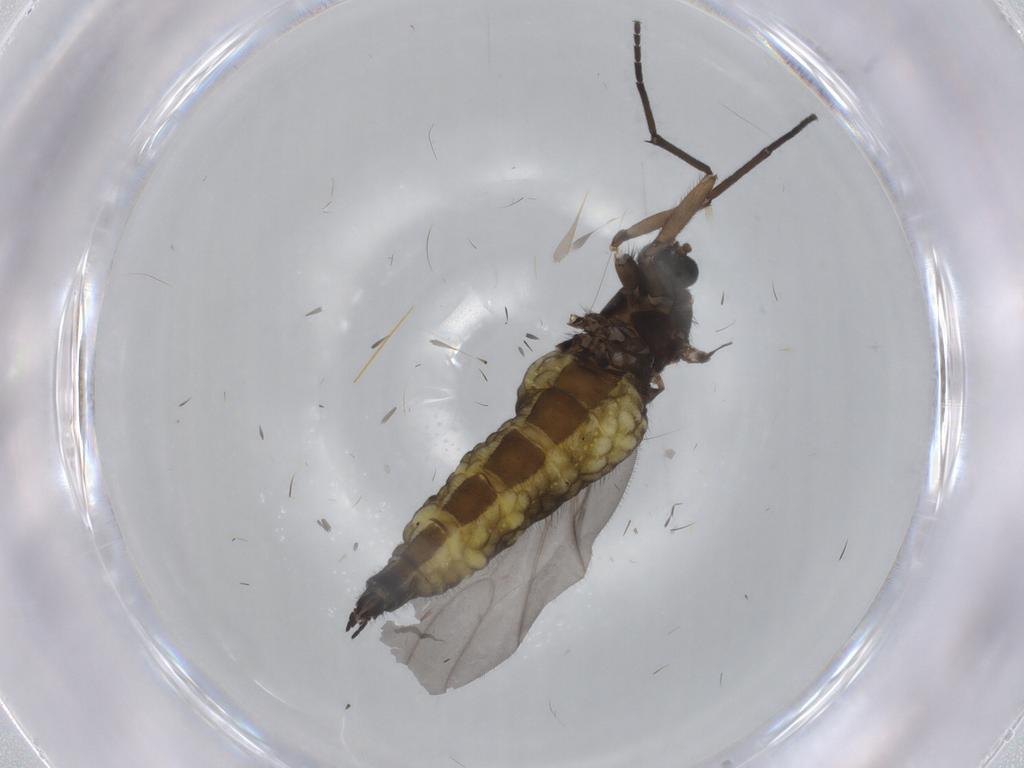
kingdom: Animalia
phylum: Arthropoda
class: Insecta
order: Diptera
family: Sciaridae
